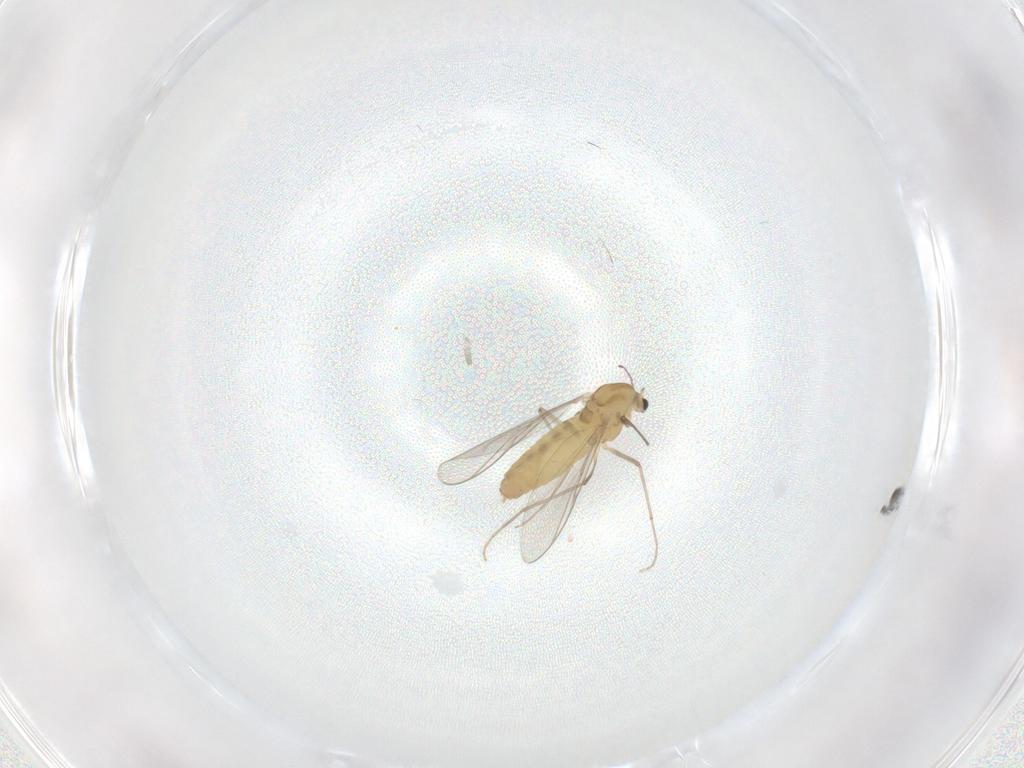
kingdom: Animalia
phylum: Arthropoda
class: Insecta
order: Diptera
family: Chironomidae
